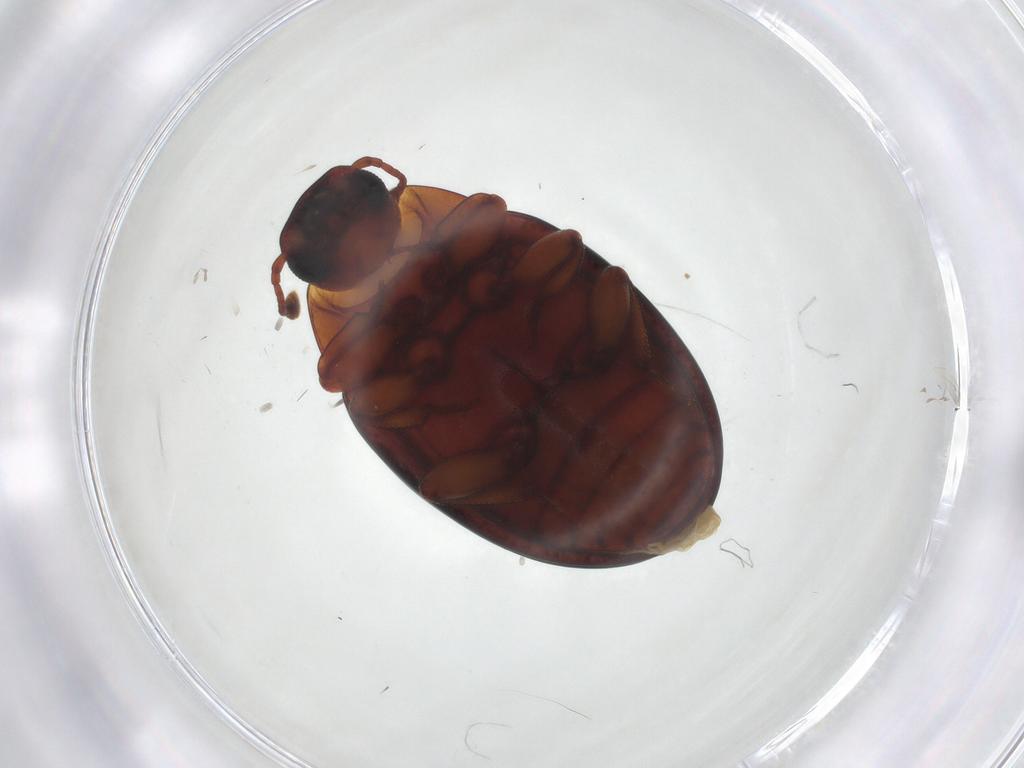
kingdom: Animalia
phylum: Arthropoda
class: Insecta
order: Coleoptera
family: Zopheridae
